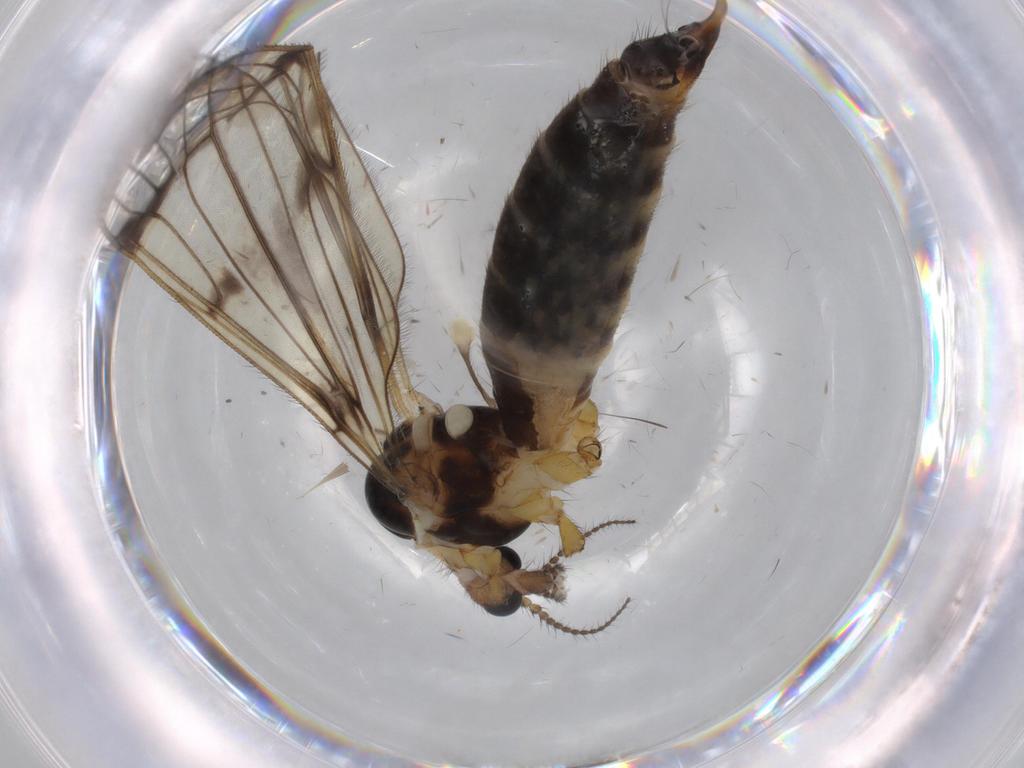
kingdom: Animalia
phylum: Arthropoda
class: Insecta
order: Diptera
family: Limoniidae
